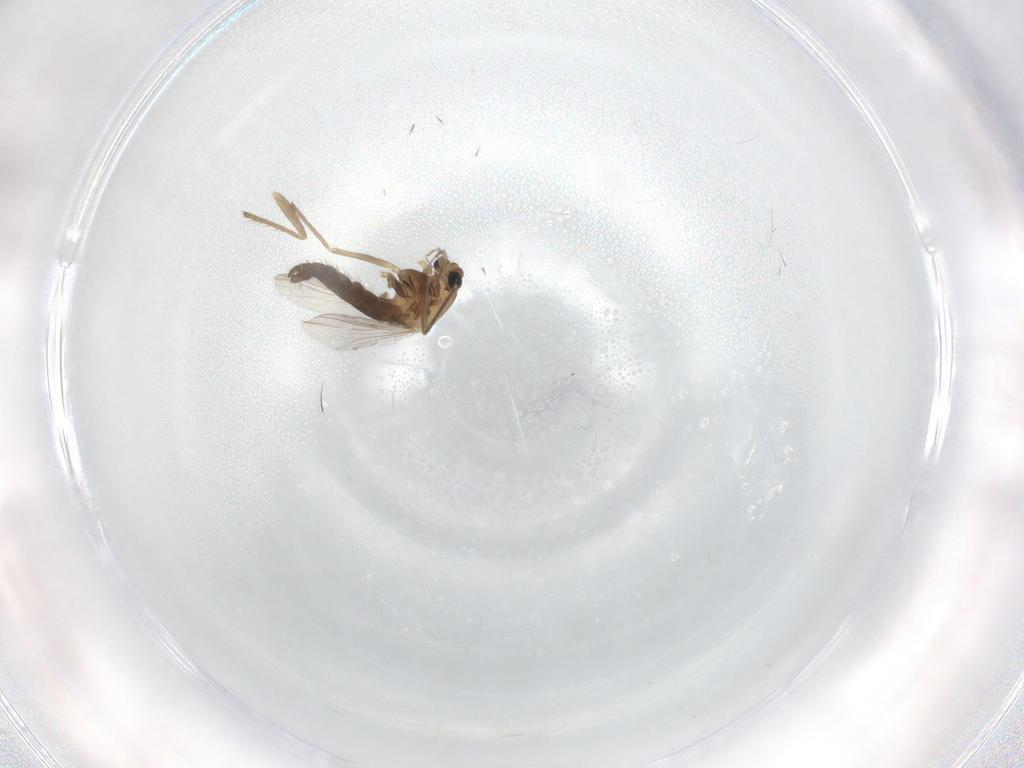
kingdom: Animalia
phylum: Arthropoda
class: Insecta
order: Diptera
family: Chironomidae
